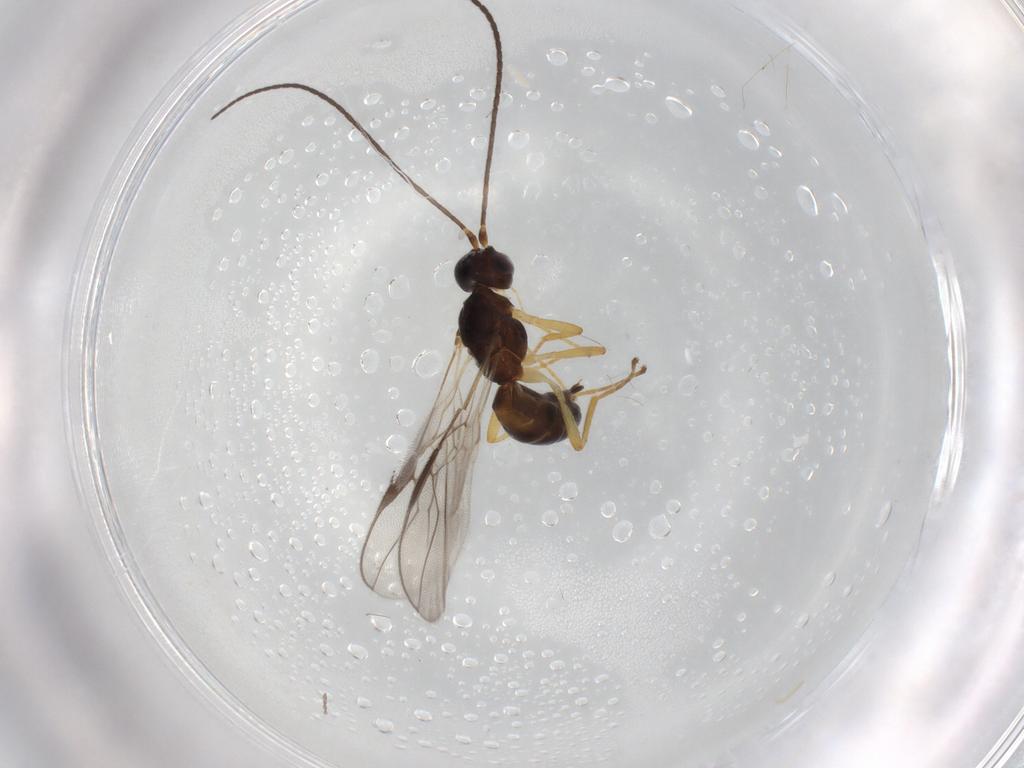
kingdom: Animalia
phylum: Arthropoda
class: Insecta
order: Hymenoptera
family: Braconidae
